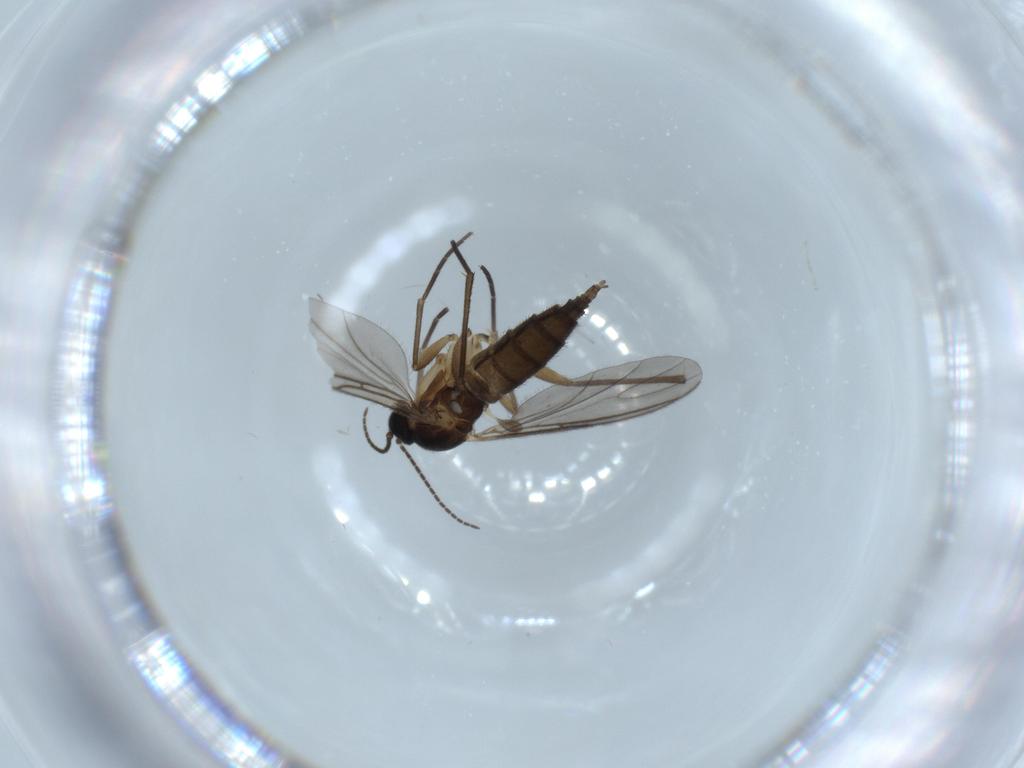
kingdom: Animalia
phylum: Arthropoda
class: Insecta
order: Diptera
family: Sciaridae
